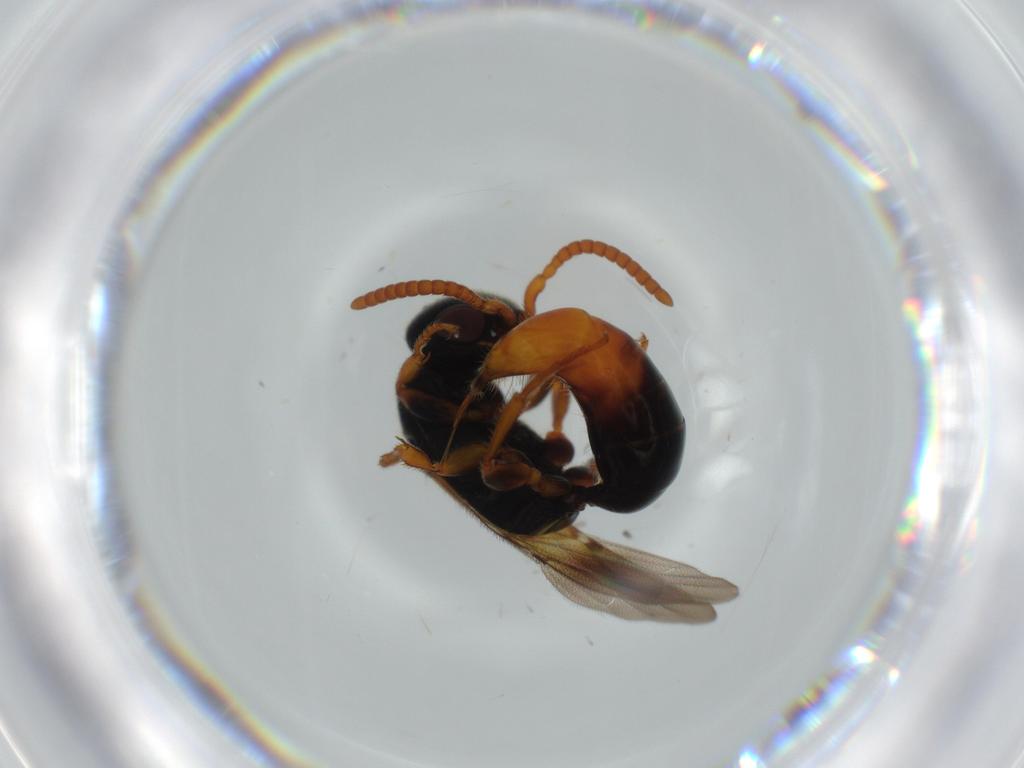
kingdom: Animalia
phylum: Arthropoda
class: Insecta
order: Hymenoptera
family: Bethylidae
